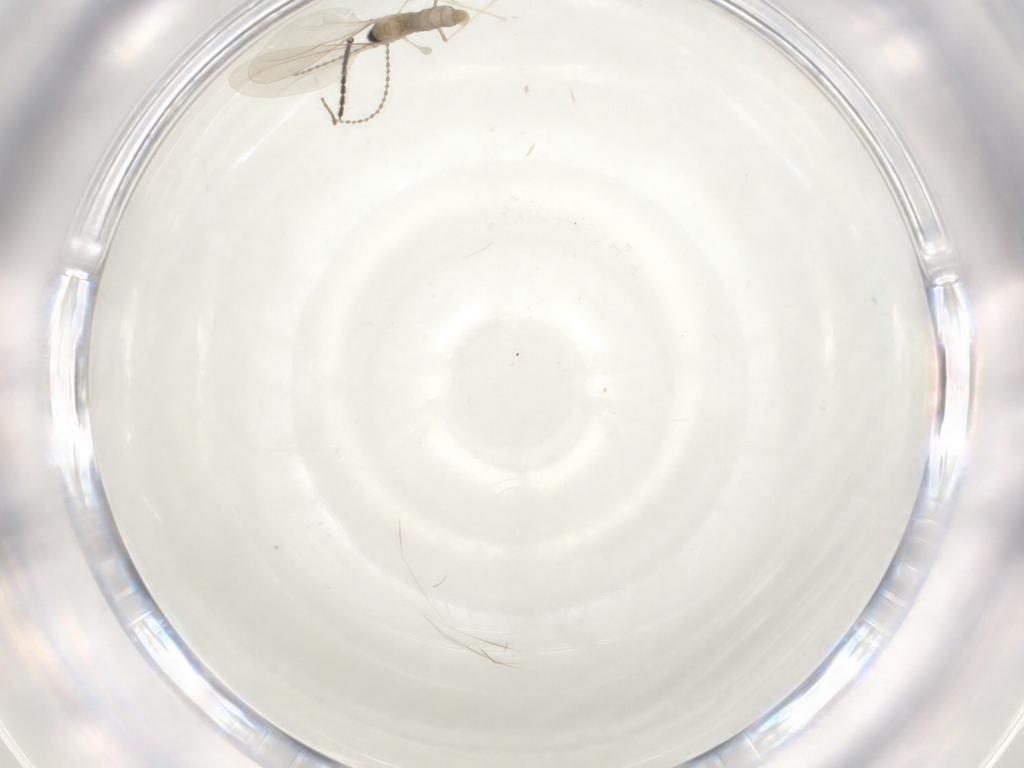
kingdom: Animalia
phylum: Arthropoda
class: Insecta
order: Diptera
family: Cecidomyiidae
